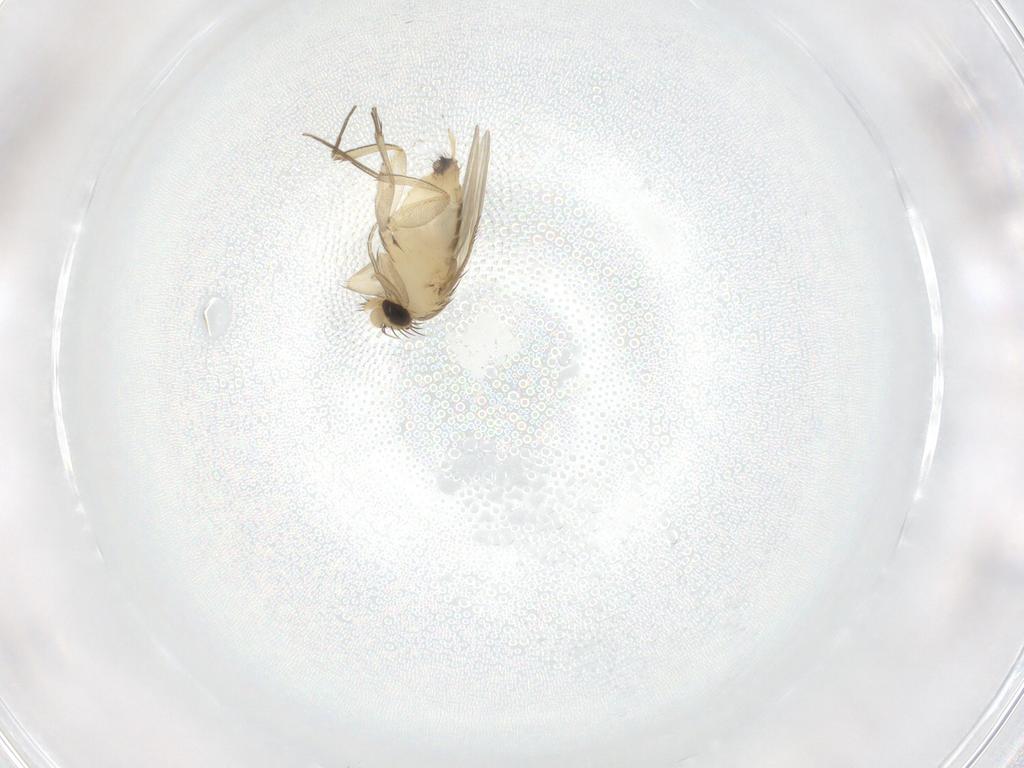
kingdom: Animalia
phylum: Arthropoda
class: Insecta
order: Diptera
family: Phoridae
